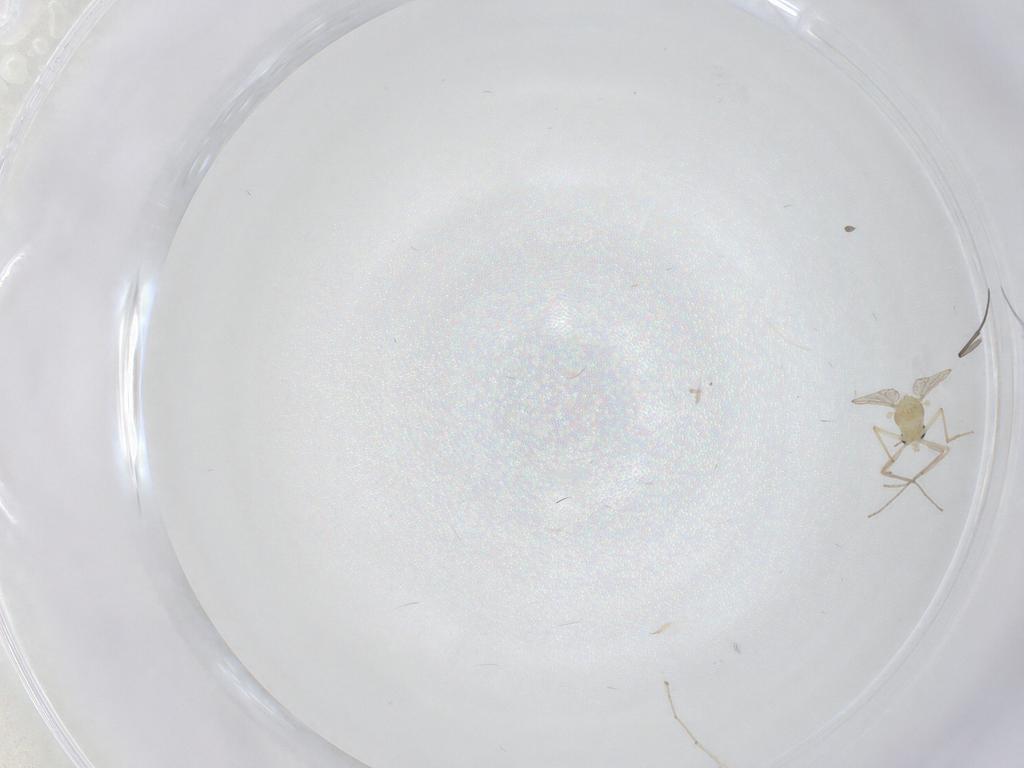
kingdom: Animalia
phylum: Arthropoda
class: Insecta
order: Diptera
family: Chironomidae
